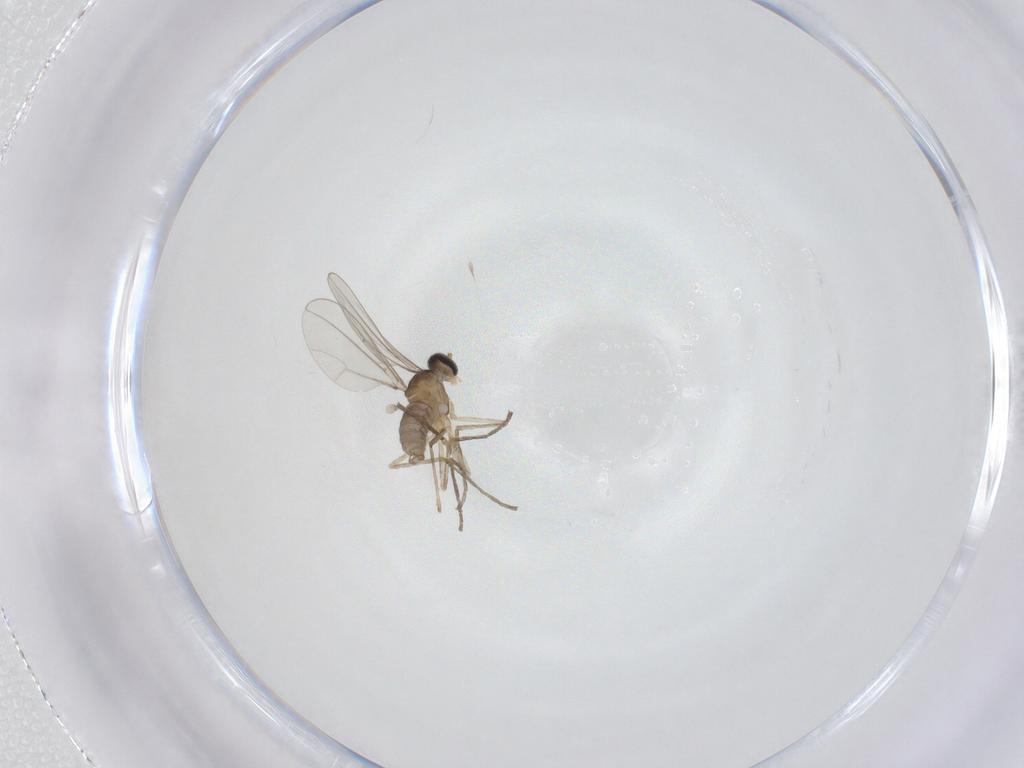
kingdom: Animalia
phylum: Arthropoda
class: Insecta
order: Diptera
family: Cecidomyiidae
